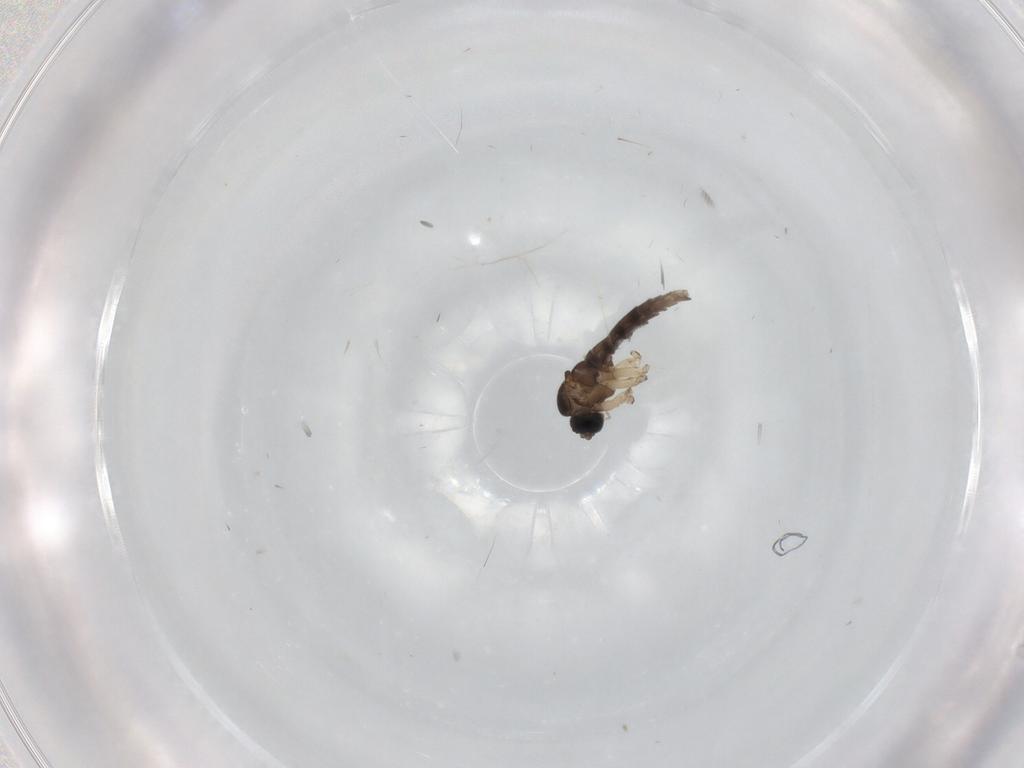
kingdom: Animalia
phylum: Arthropoda
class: Insecta
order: Diptera
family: Sciaridae
